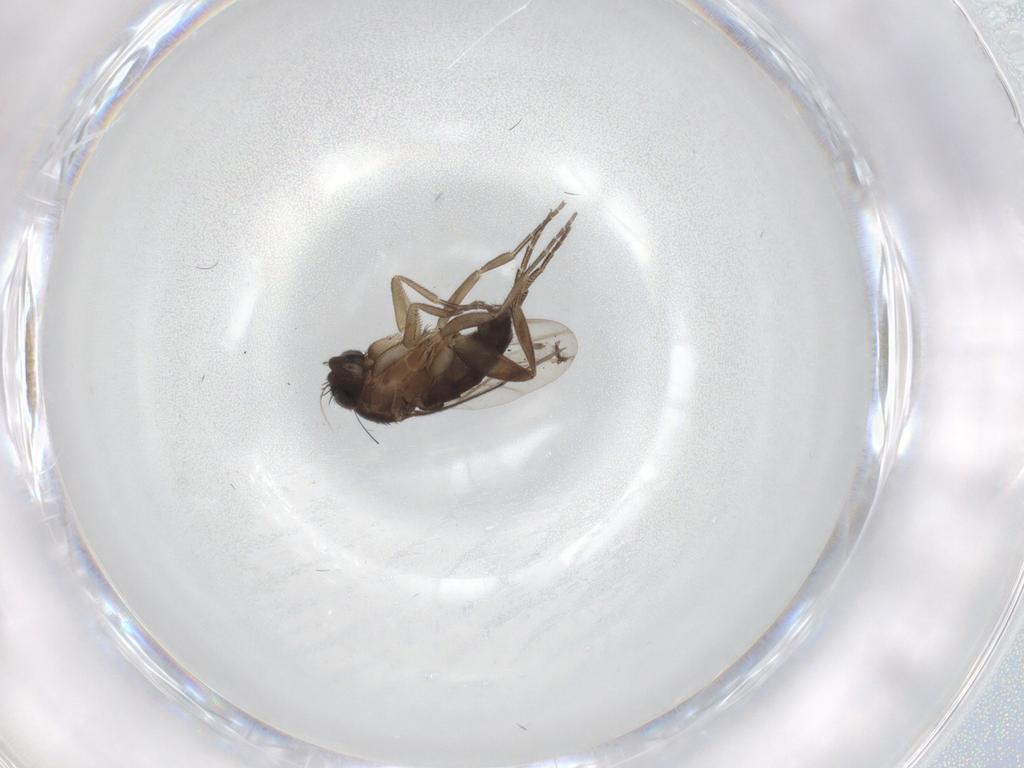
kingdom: Animalia
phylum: Arthropoda
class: Insecta
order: Diptera
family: Phoridae
